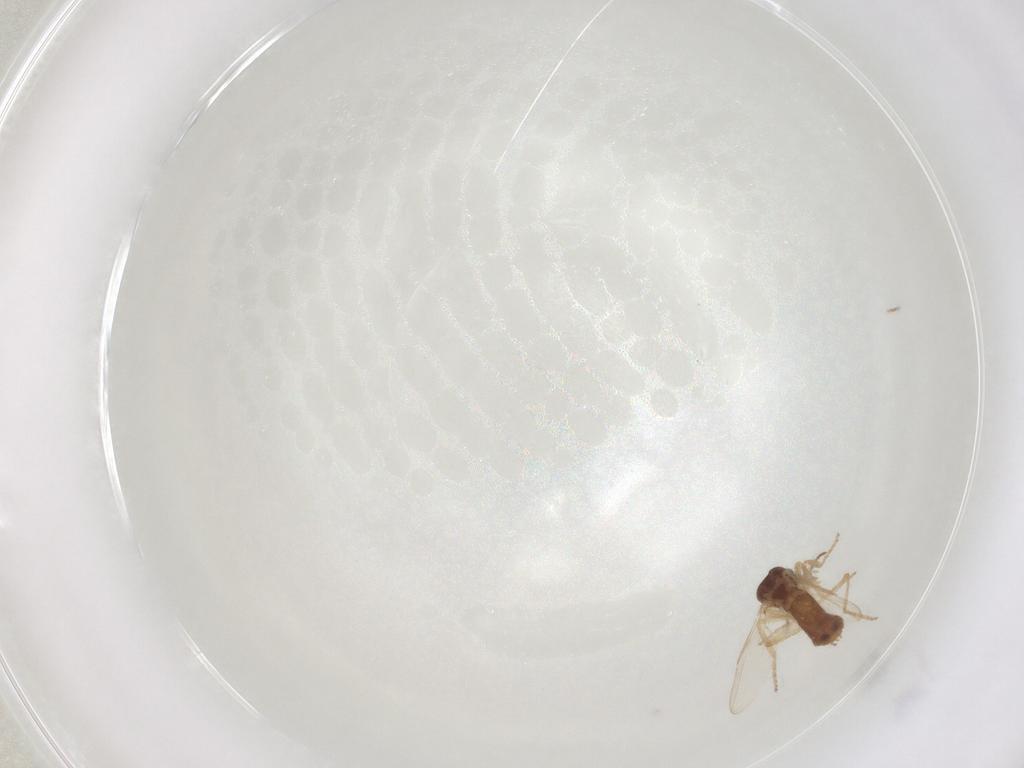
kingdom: Animalia
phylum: Arthropoda
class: Insecta
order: Diptera
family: Ceratopogonidae
